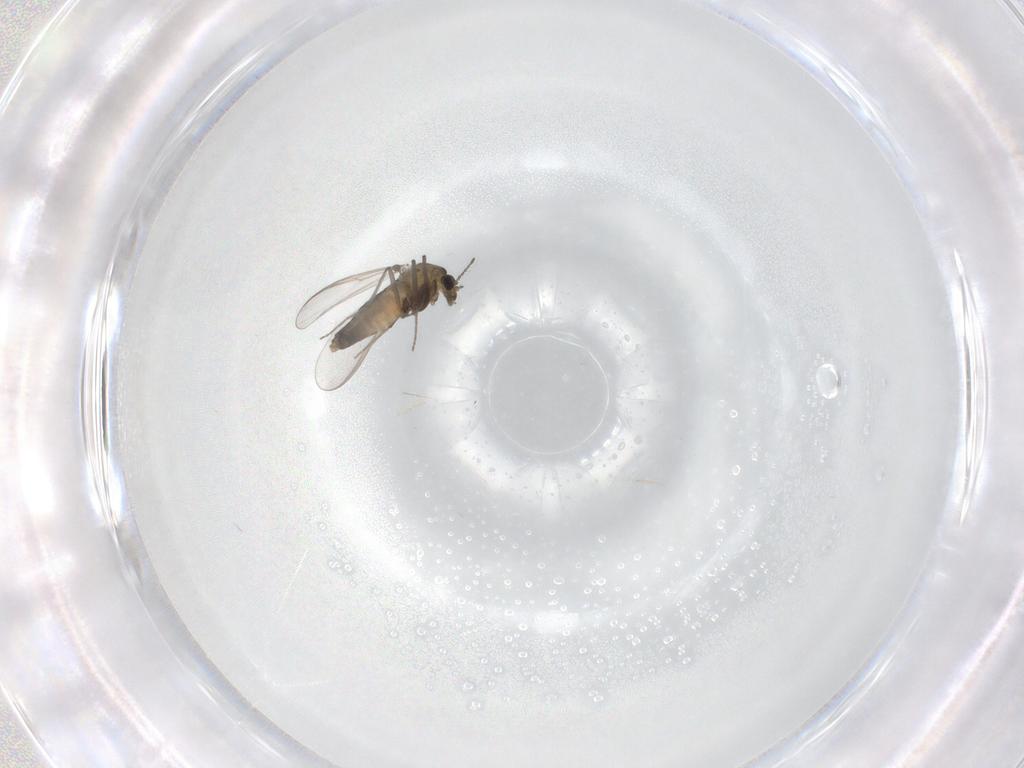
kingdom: Animalia
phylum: Arthropoda
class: Insecta
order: Diptera
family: Chironomidae
